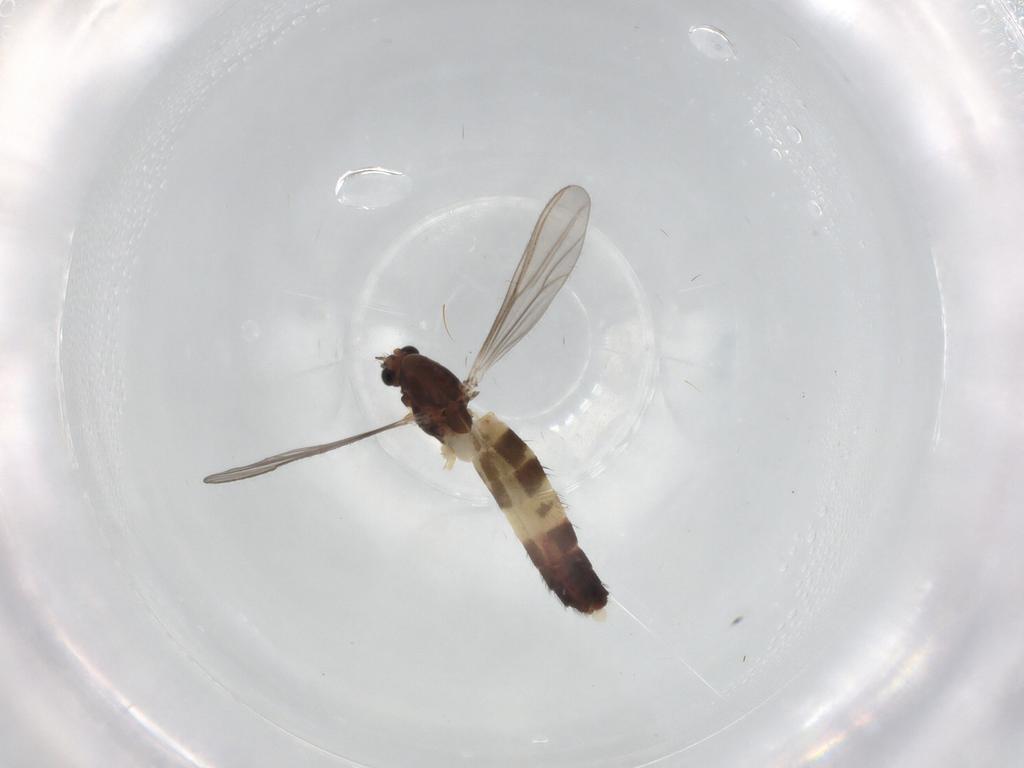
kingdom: Animalia
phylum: Arthropoda
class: Insecta
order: Diptera
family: Chironomidae
